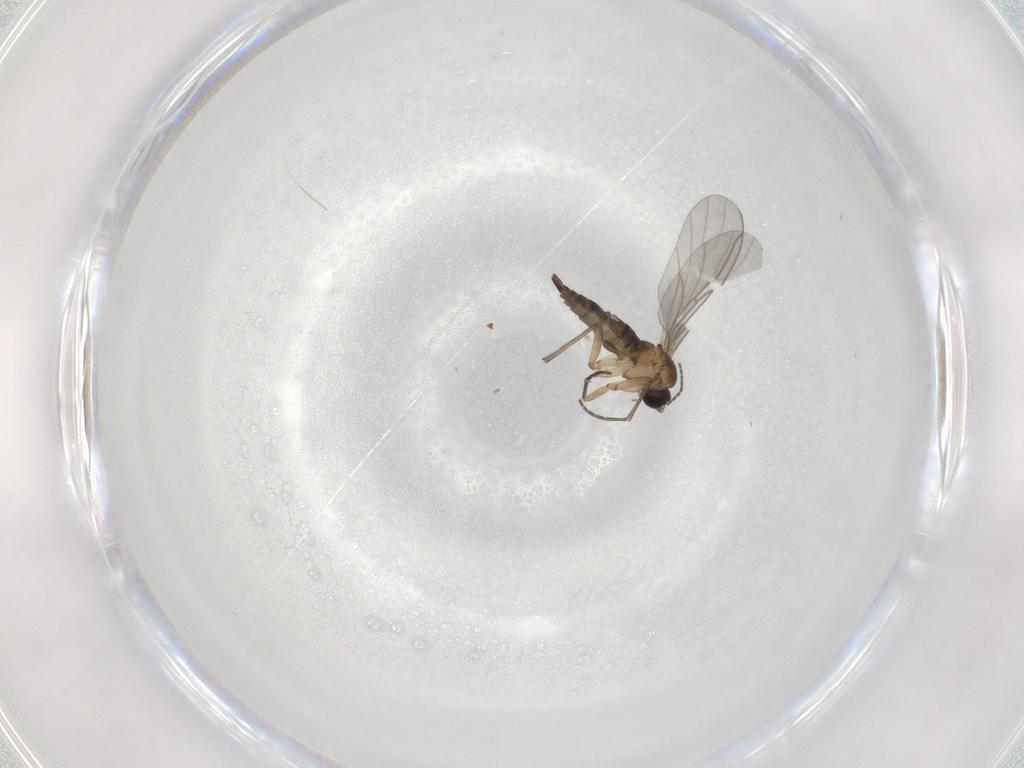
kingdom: Animalia
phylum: Arthropoda
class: Insecta
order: Diptera
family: Sciaridae
